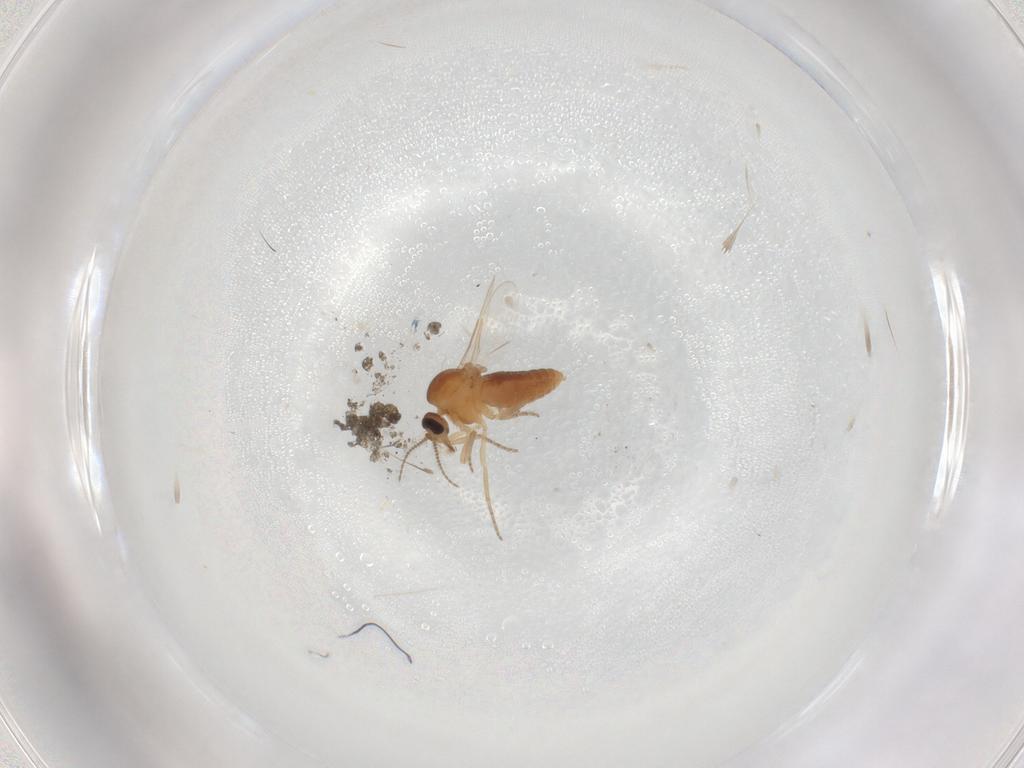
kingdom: Animalia
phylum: Arthropoda
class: Insecta
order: Diptera
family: Ceratopogonidae
